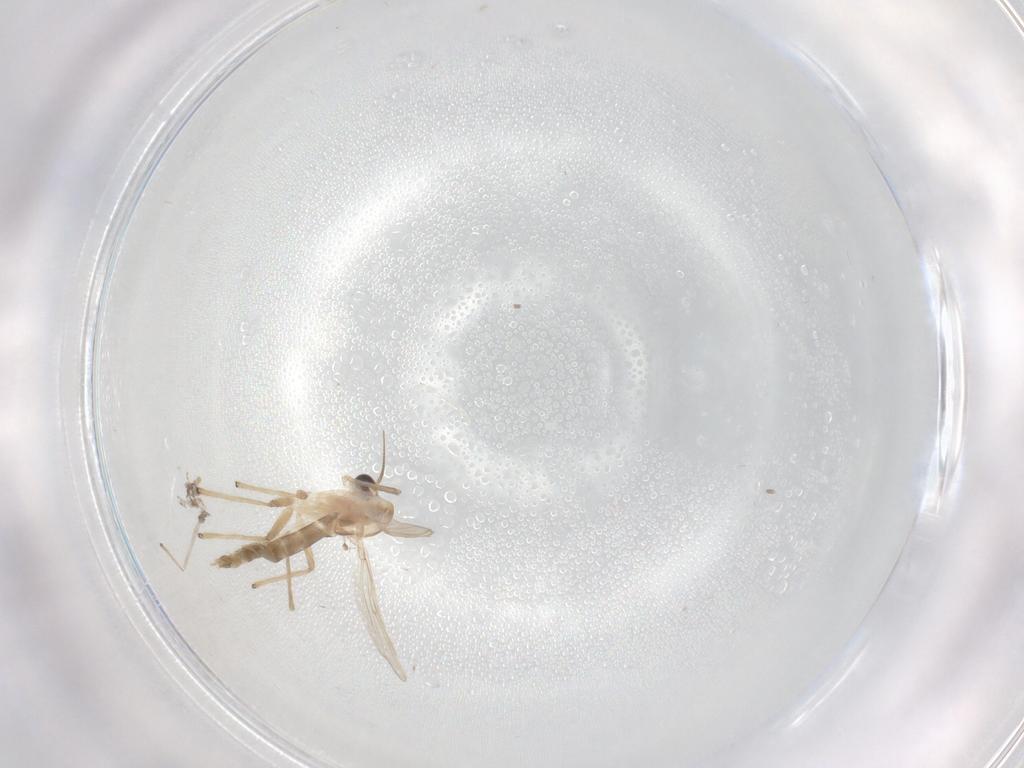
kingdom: Animalia
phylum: Arthropoda
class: Insecta
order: Diptera
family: Chironomidae
